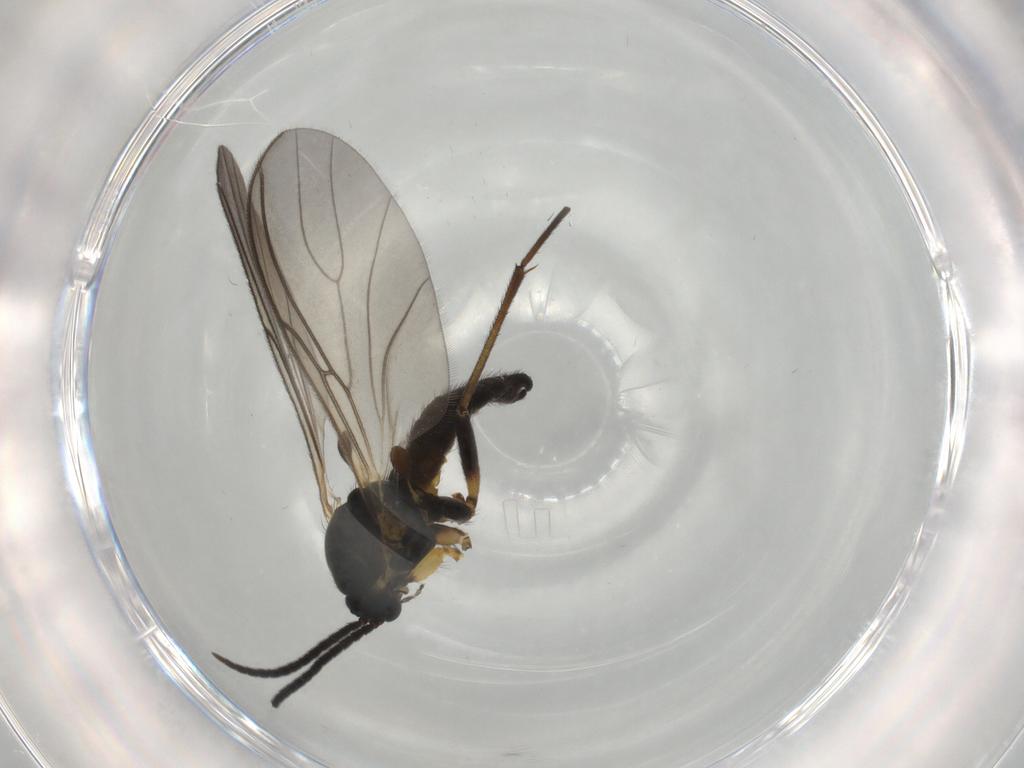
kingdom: Animalia
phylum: Arthropoda
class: Insecta
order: Diptera
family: Sciaridae
